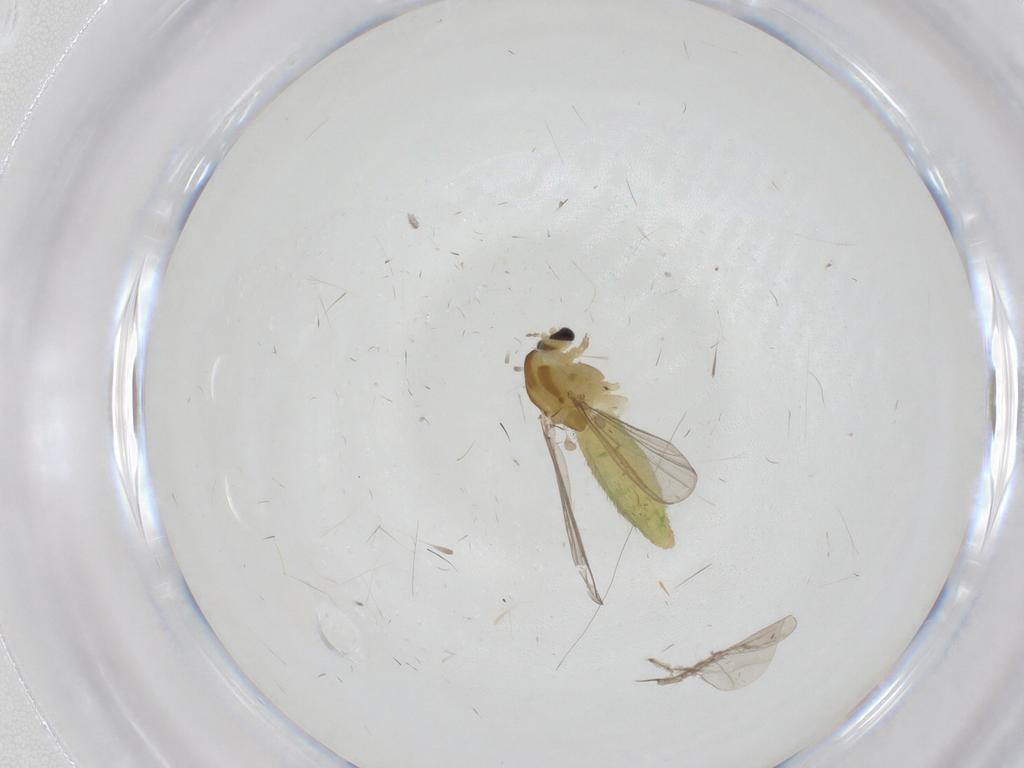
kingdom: Animalia
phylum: Arthropoda
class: Insecta
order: Diptera
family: Chironomidae
